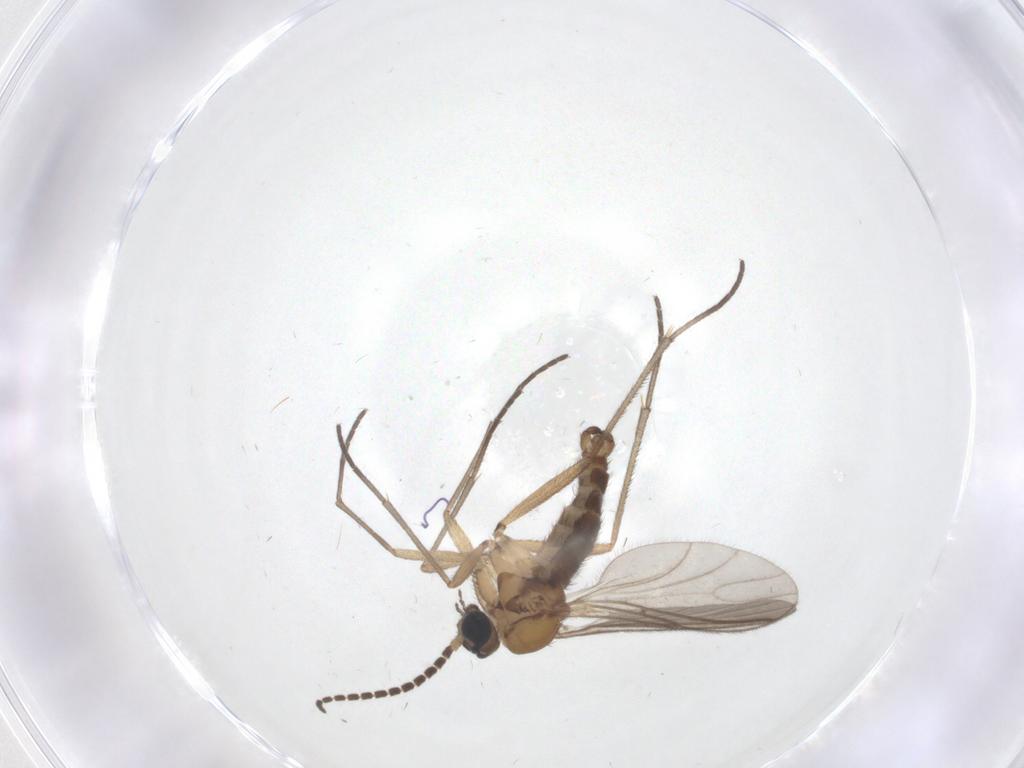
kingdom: Animalia
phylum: Arthropoda
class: Insecta
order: Diptera
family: Sciaridae
